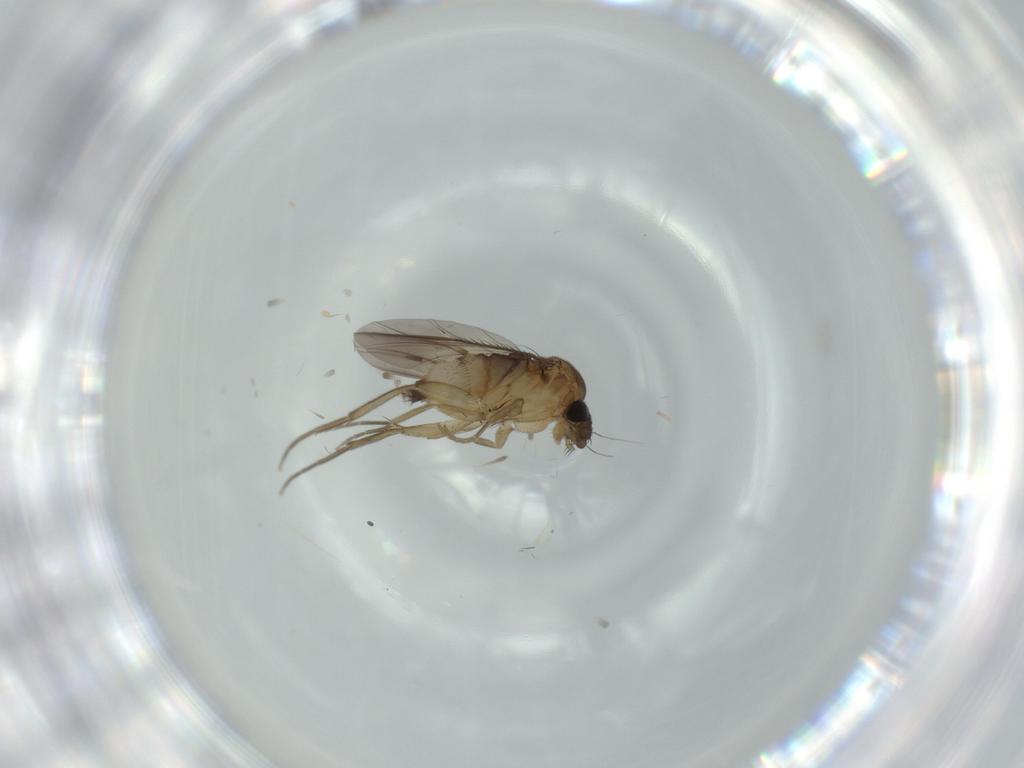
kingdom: Animalia
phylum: Arthropoda
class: Insecta
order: Diptera
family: Phoridae
